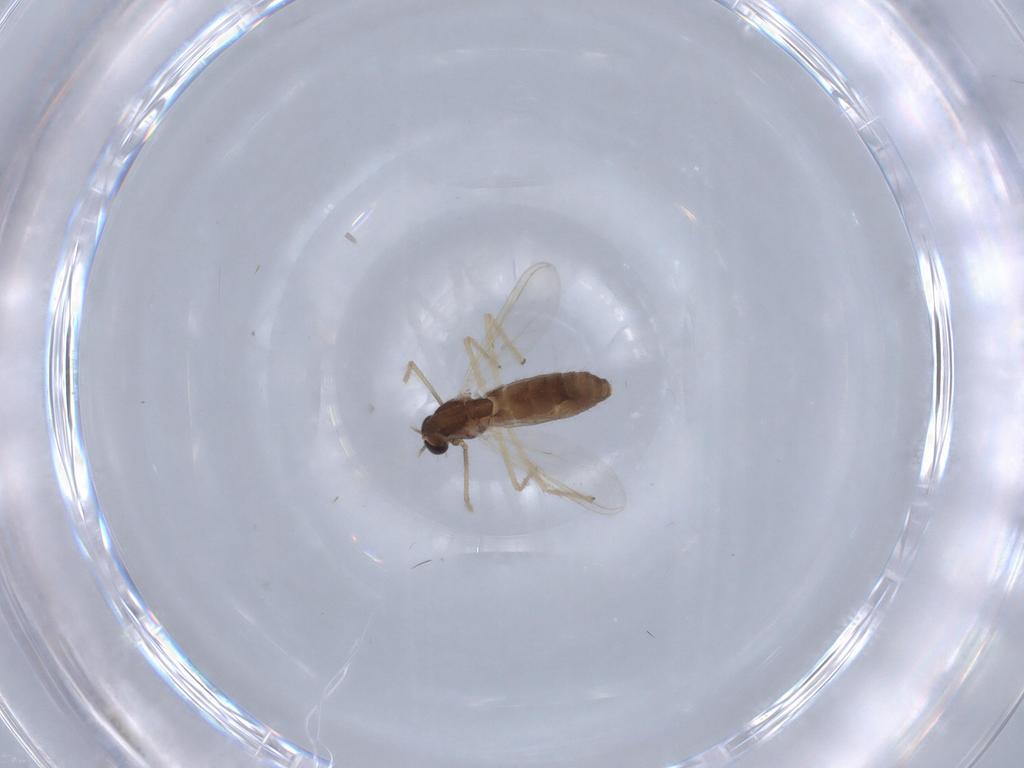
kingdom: Animalia
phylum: Arthropoda
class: Insecta
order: Diptera
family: Chironomidae
